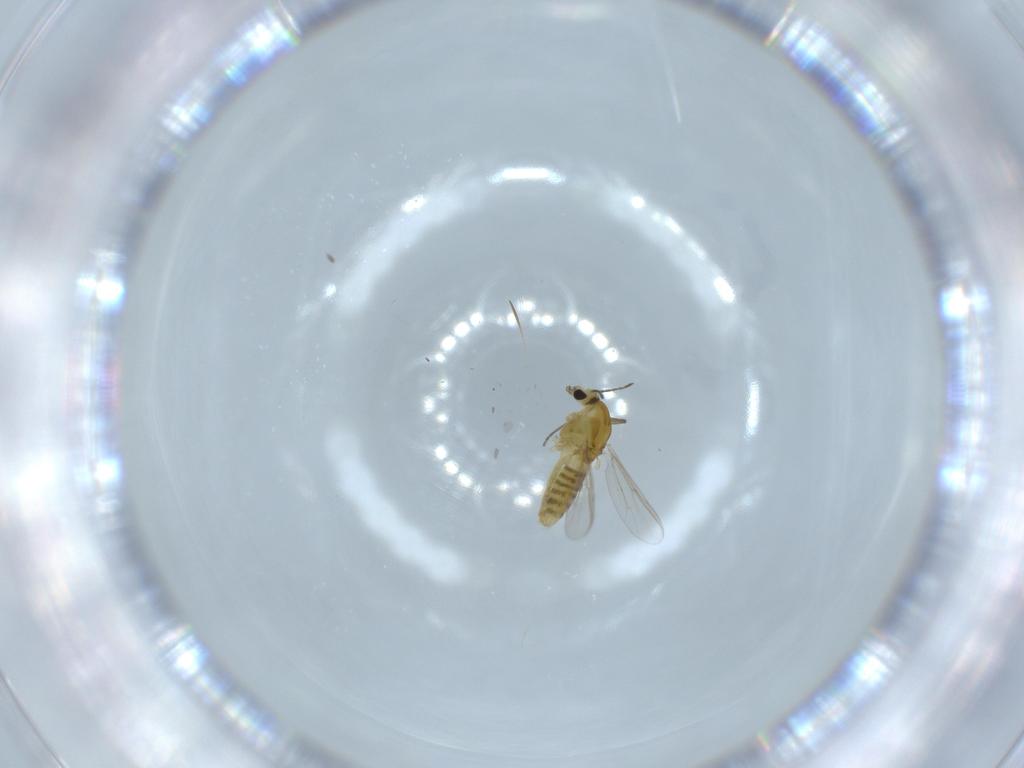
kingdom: Animalia
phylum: Arthropoda
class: Insecta
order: Diptera
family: Chironomidae
